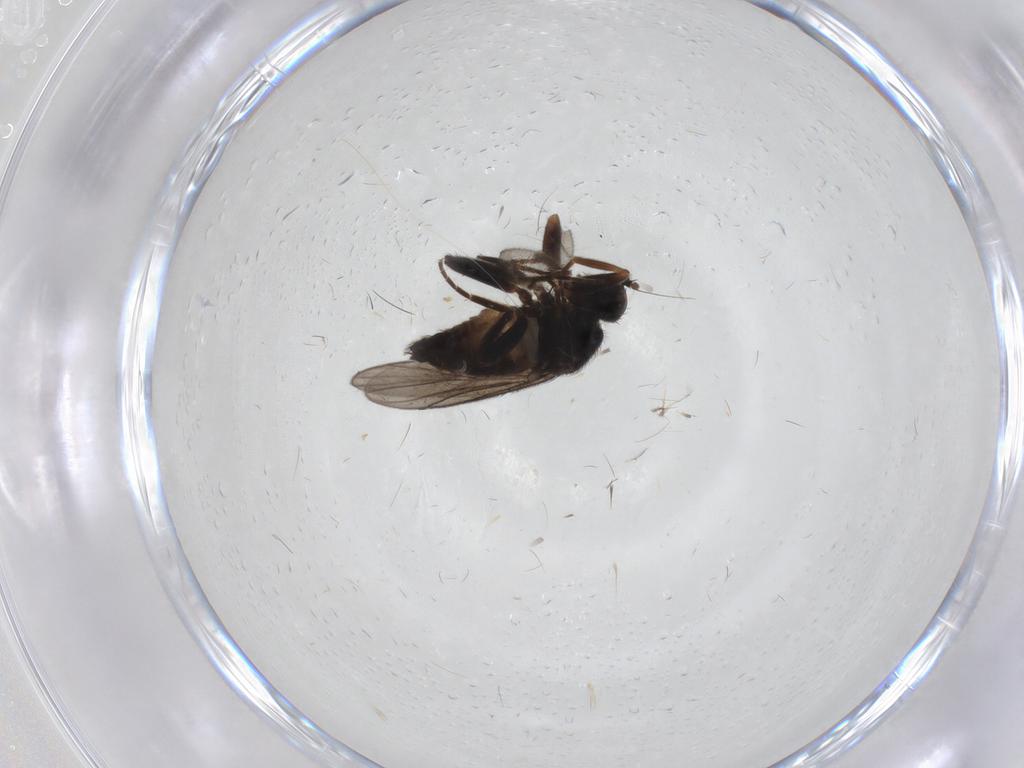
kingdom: Animalia
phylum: Arthropoda
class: Insecta
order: Diptera
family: Hybotidae
